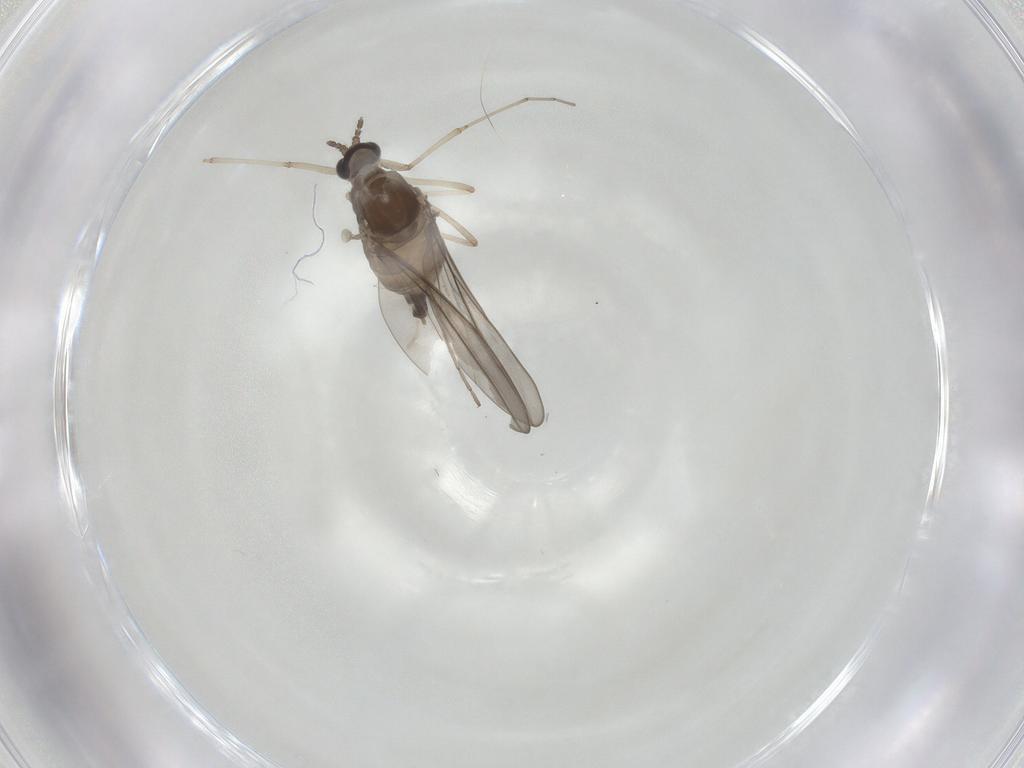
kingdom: Animalia
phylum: Arthropoda
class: Insecta
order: Diptera
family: Cecidomyiidae
